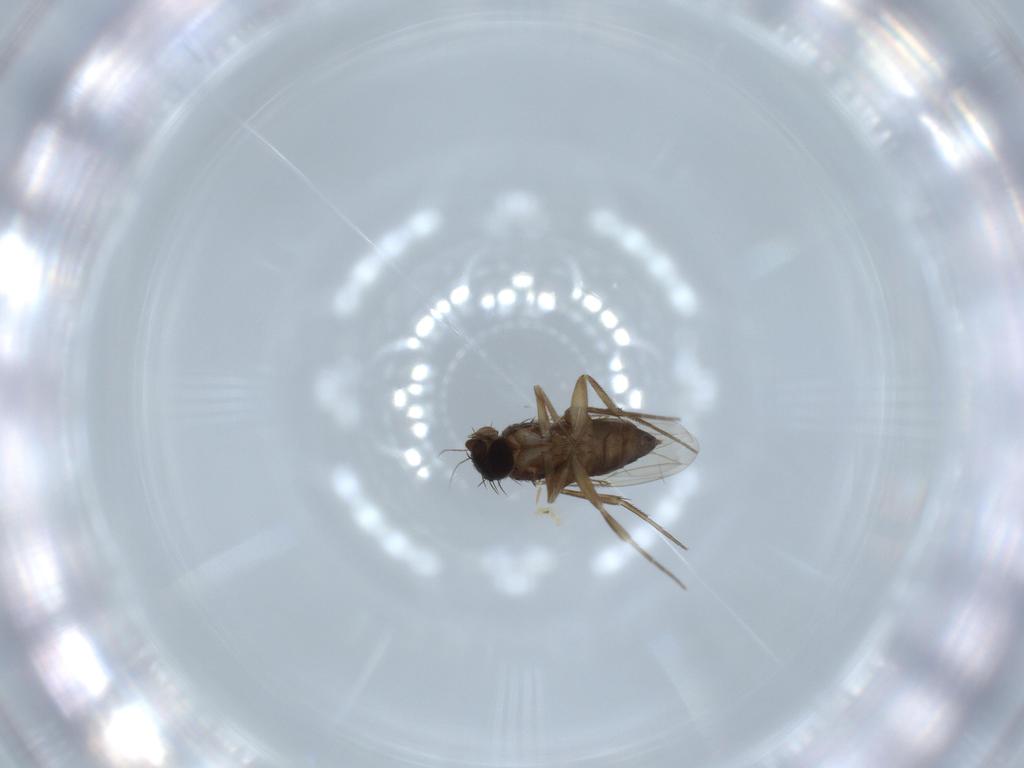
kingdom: Animalia
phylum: Arthropoda
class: Insecta
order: Diptera
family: Phoridae
